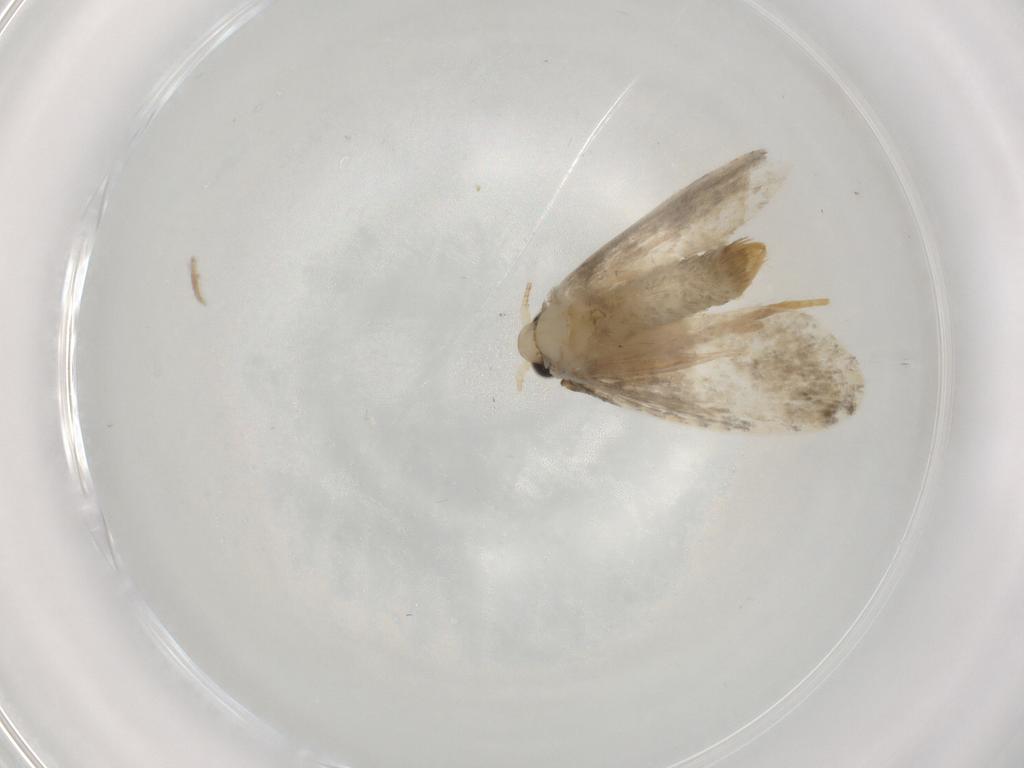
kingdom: Animalia
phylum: Arthropoda
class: Insecta
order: Lepidoptera
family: Psychidae
